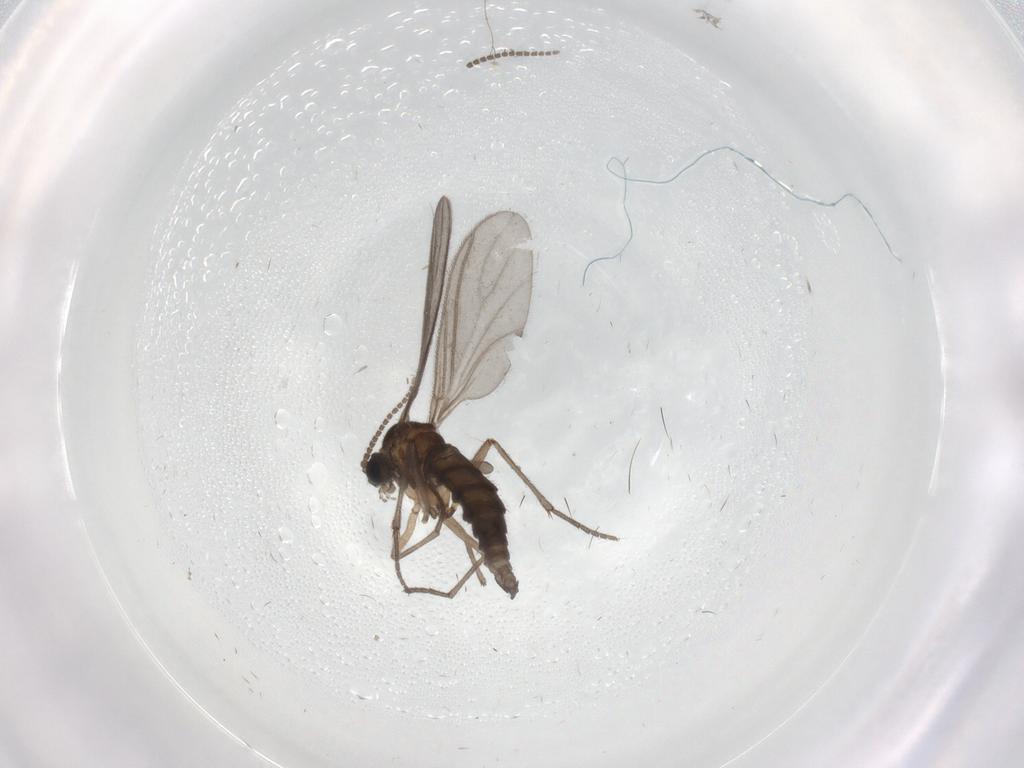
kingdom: Animalia
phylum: Arthropoda
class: Insecta
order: Diptera
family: Sciaridae
